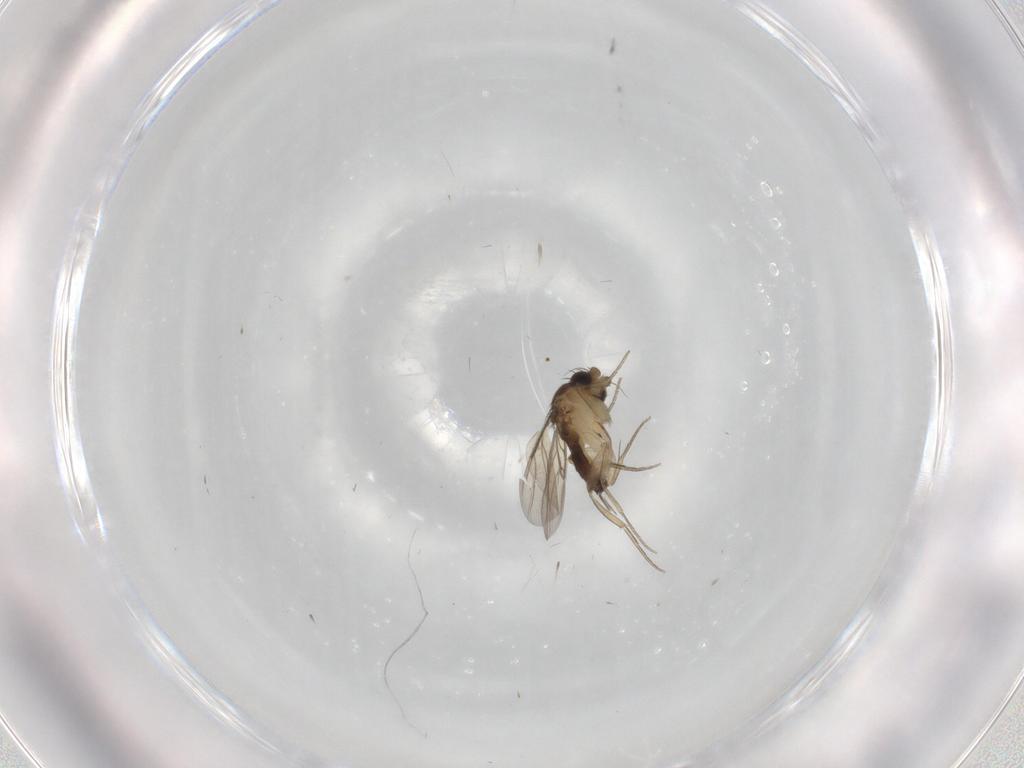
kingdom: Animalia
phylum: Arthropoda
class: Insecta
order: Diptera
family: Phoridae
